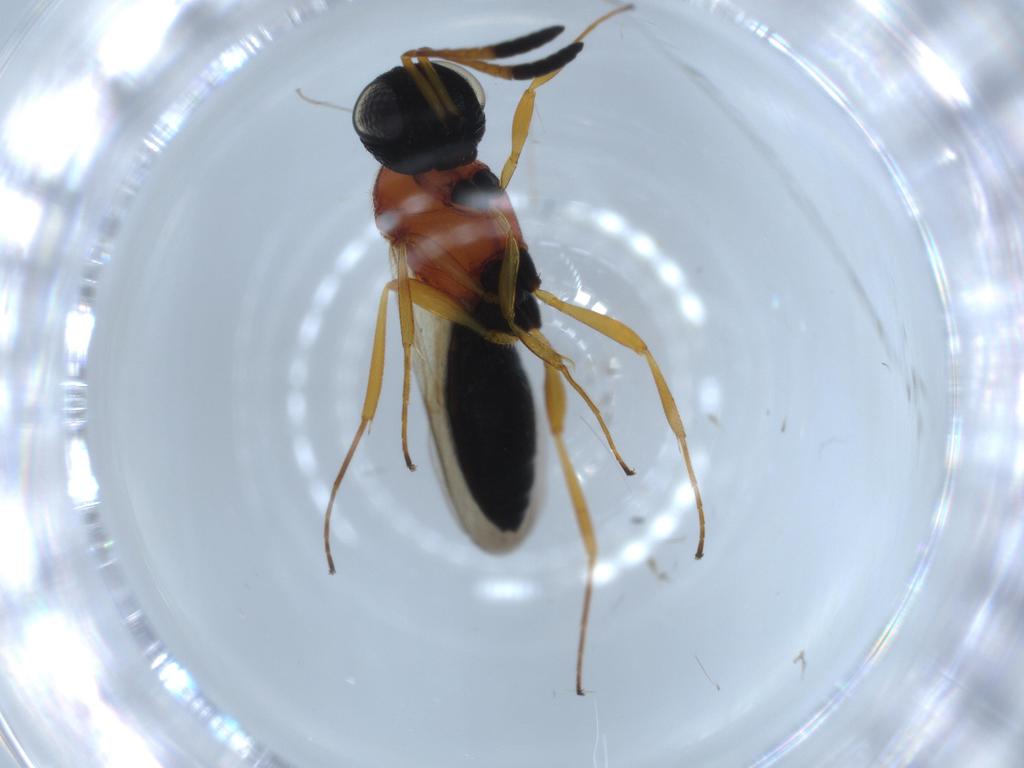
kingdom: Animalia
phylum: Arthropoda
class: Insecta
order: Hymenoptera
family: Scelionidae
